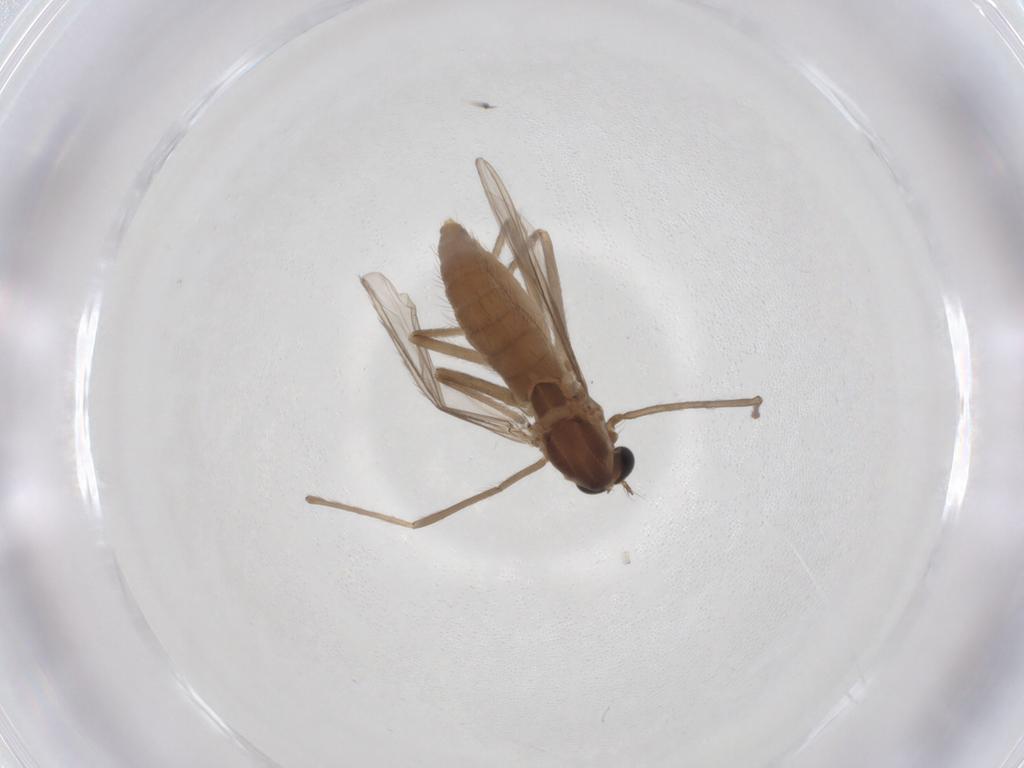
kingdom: Animalia
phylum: Arthropoda
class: Insecta
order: Diptera
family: Chironomidae
